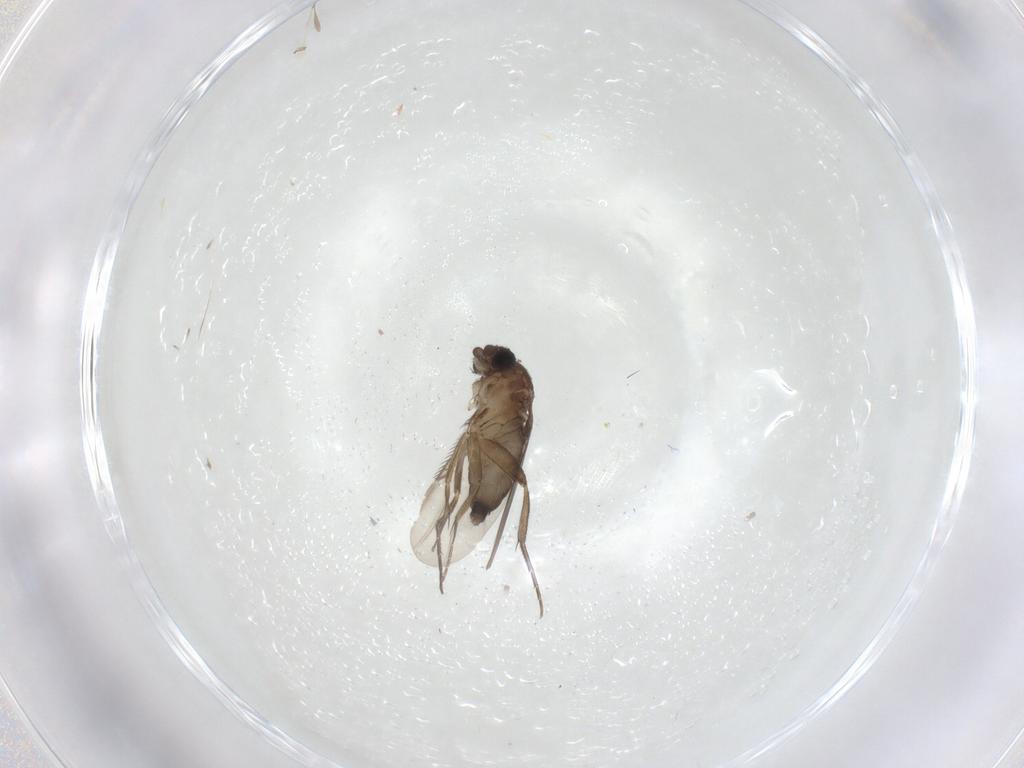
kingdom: Animalia
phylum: Arthropoda
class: Insecta
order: Diptera
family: Phoridae
